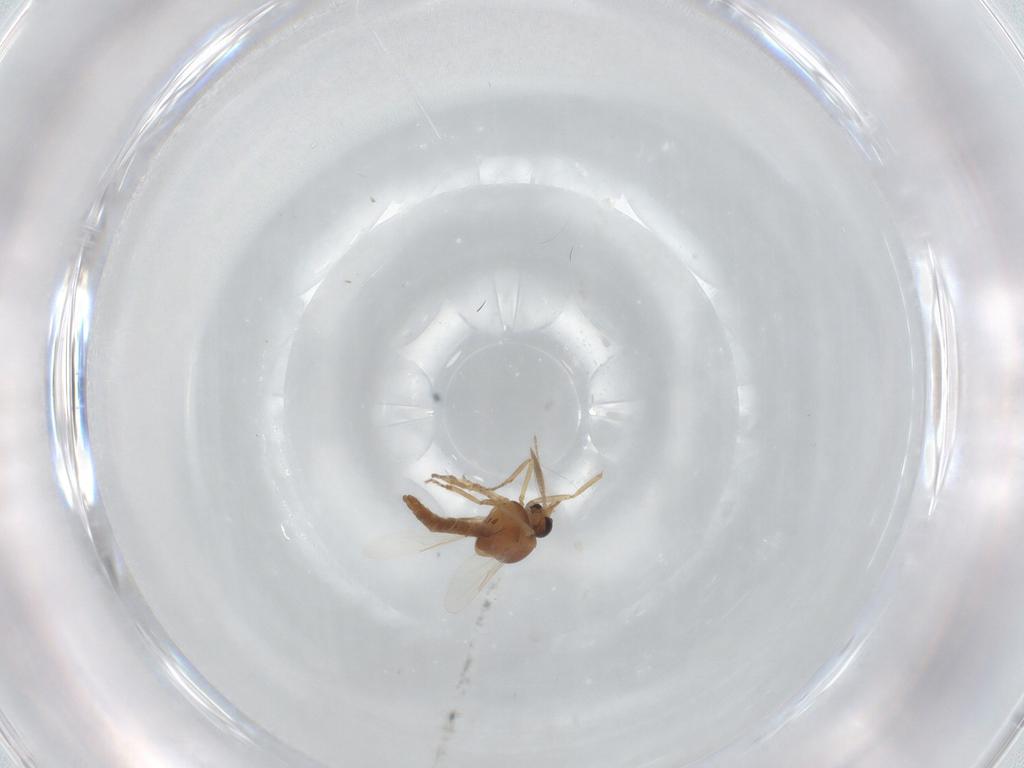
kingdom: Animalia
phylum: Arthropoda
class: Insecta
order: Diptera
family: Ceratopogonidae
